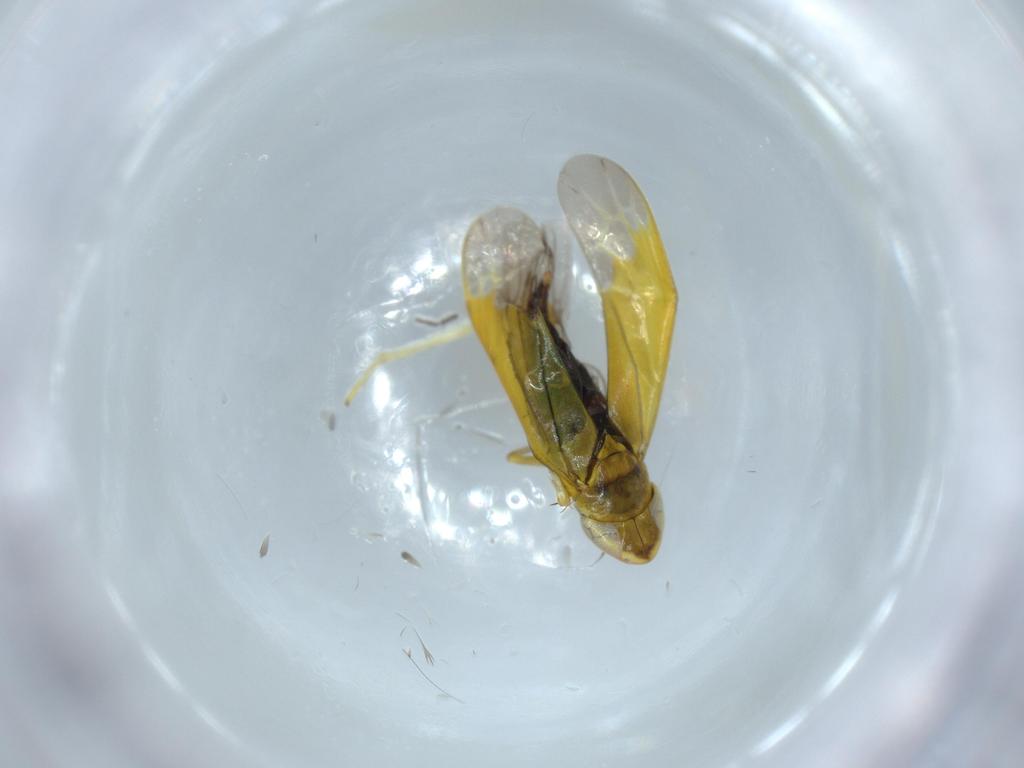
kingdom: Animalia
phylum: Arthropoda
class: Insecta
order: Hemiptera
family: Cicadellidae
